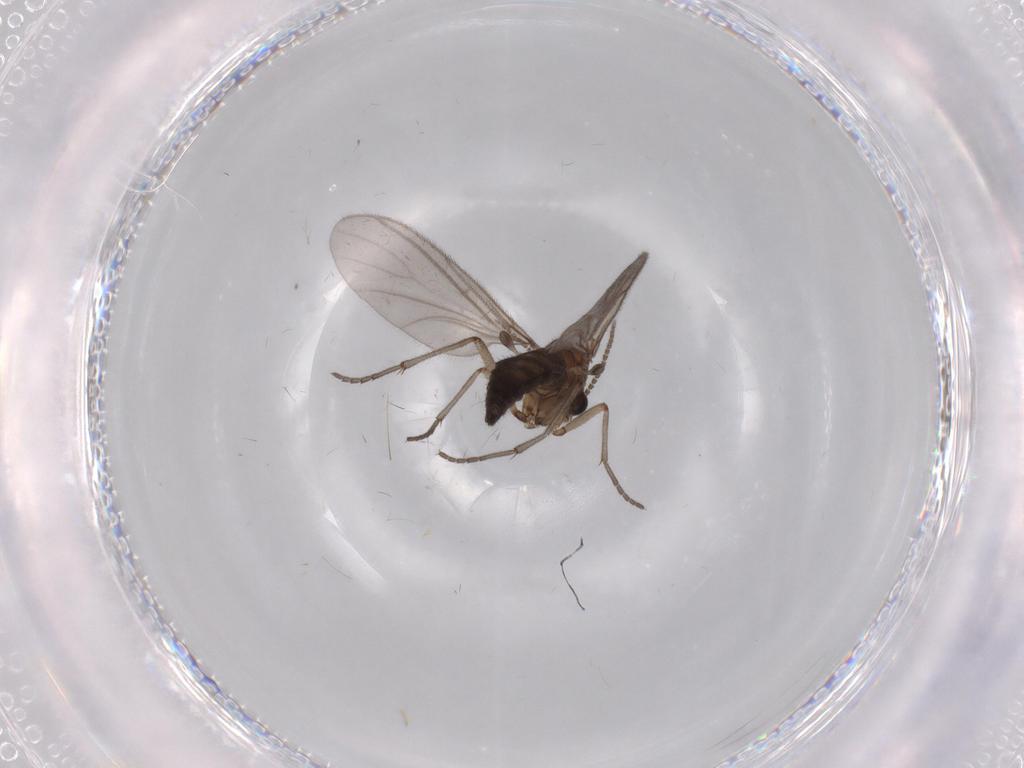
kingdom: Animalia
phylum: Arthropoda
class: Insecta
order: Diptera
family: Sciaridae
